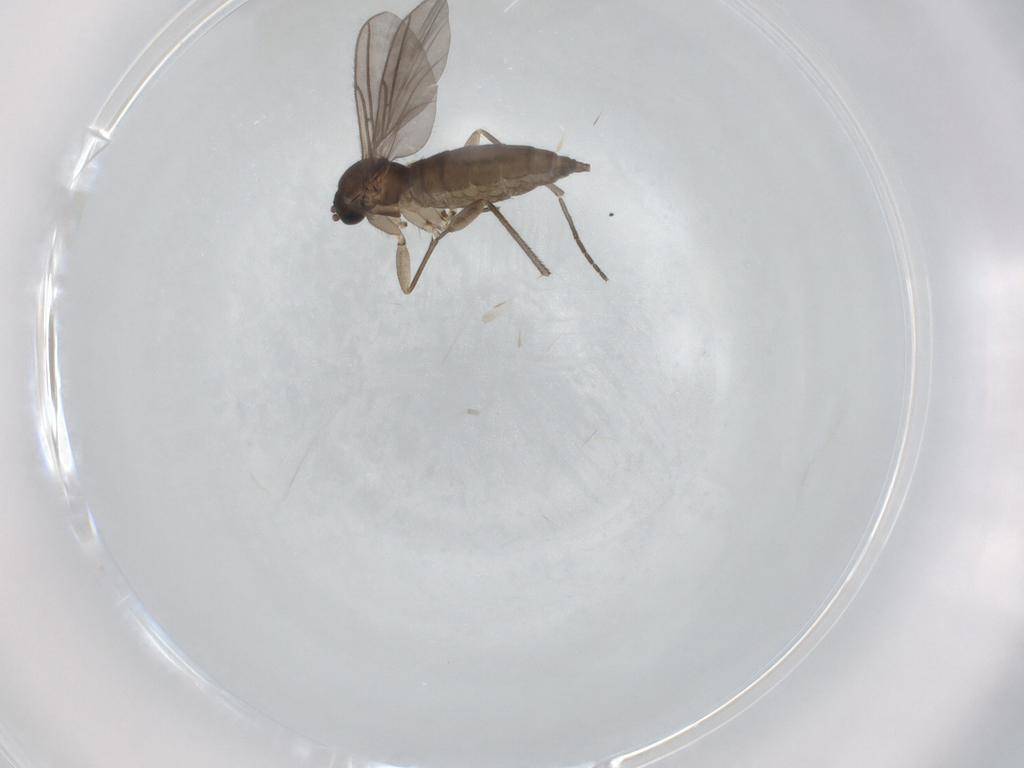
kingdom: Animalia
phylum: Arthropoda
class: Insecta
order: Diptera
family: Sciaridae
